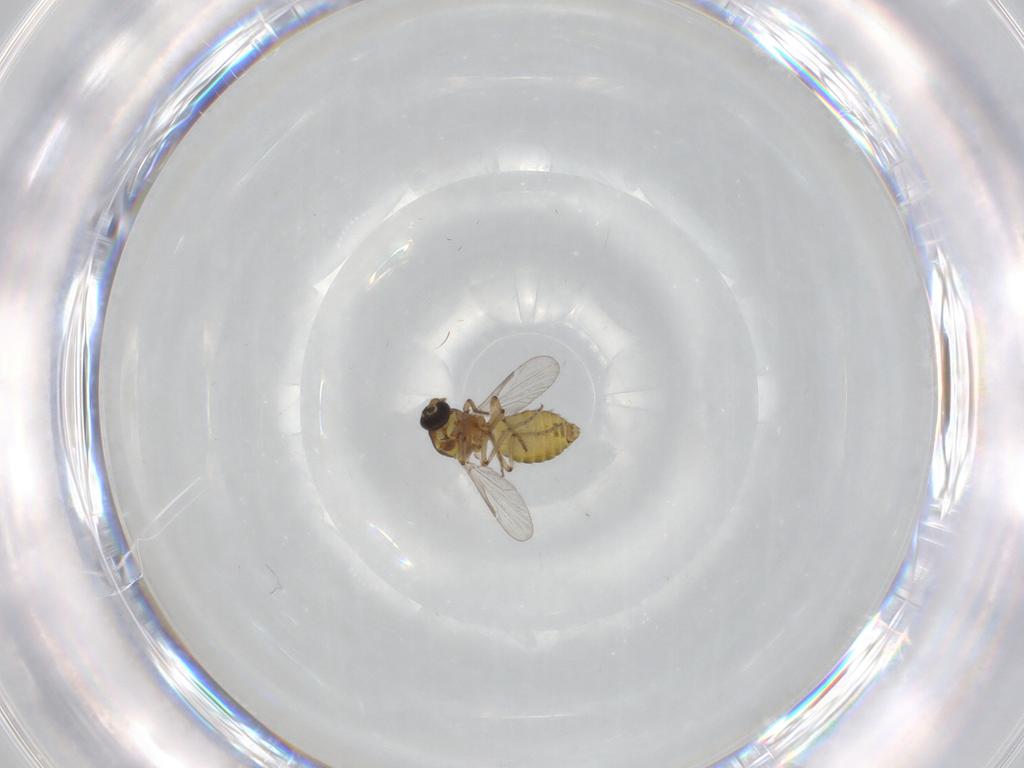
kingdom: Animalia
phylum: Arthropoda
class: Insecta
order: Diptera
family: Ceratopogonidae
